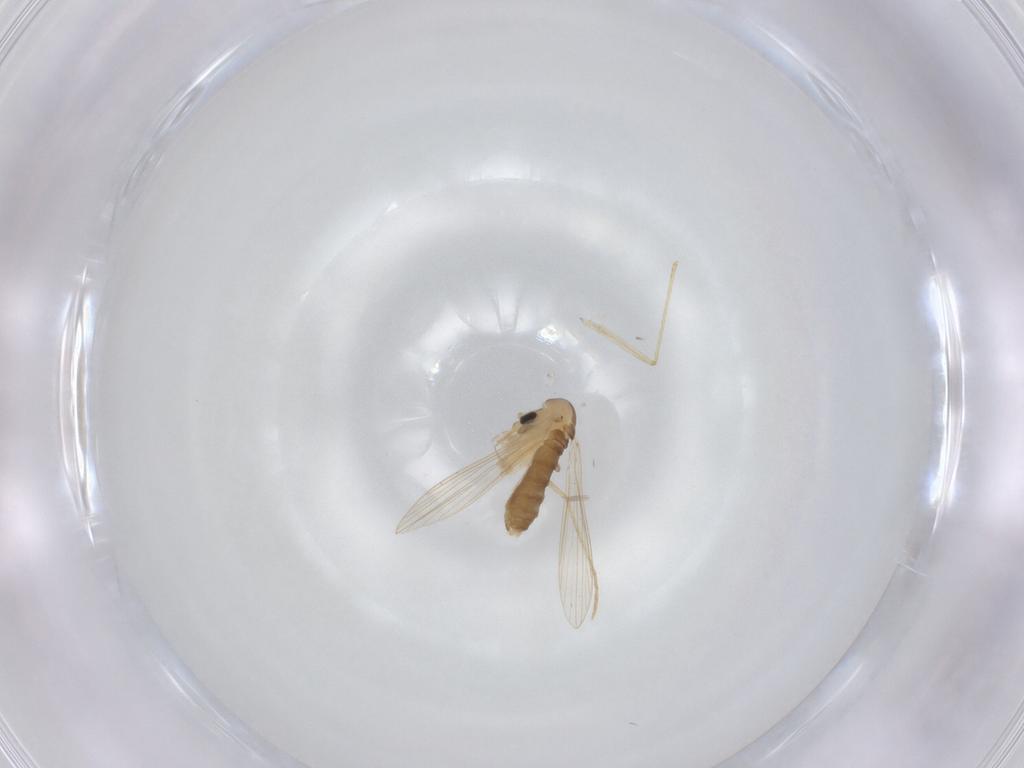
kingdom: Animalia
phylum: Arthropoda
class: Insecta
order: Diptera
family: Psychodidae
